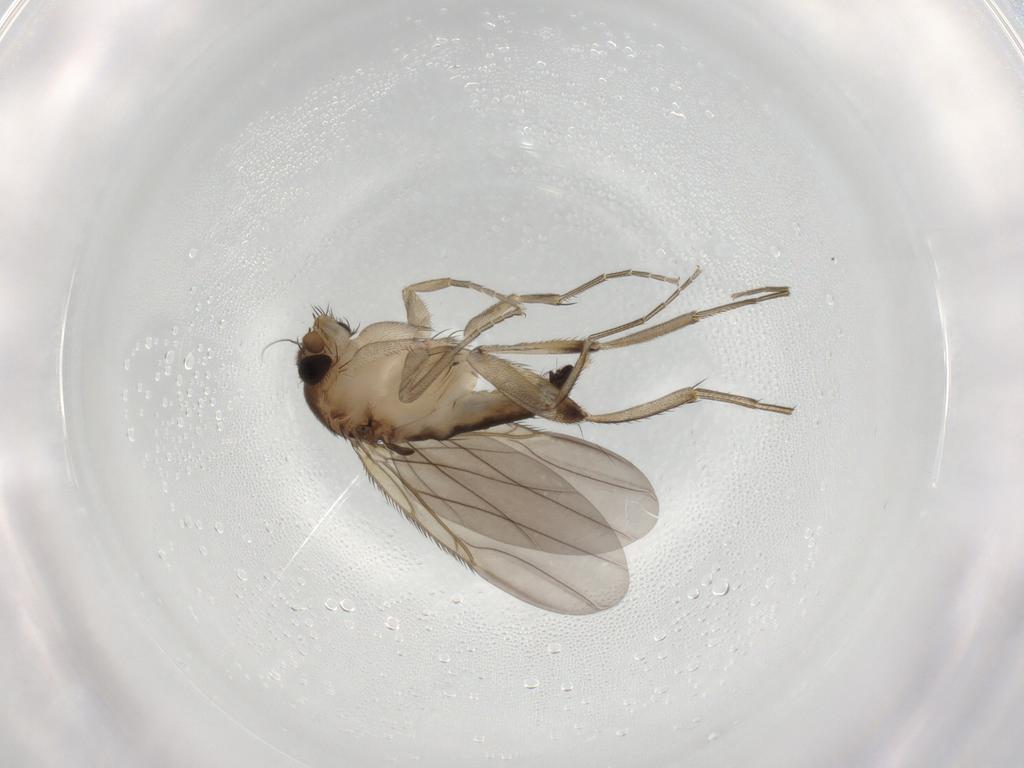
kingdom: Animalia
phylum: Arthropoda
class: Insecta
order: Diptera
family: Phoridae
